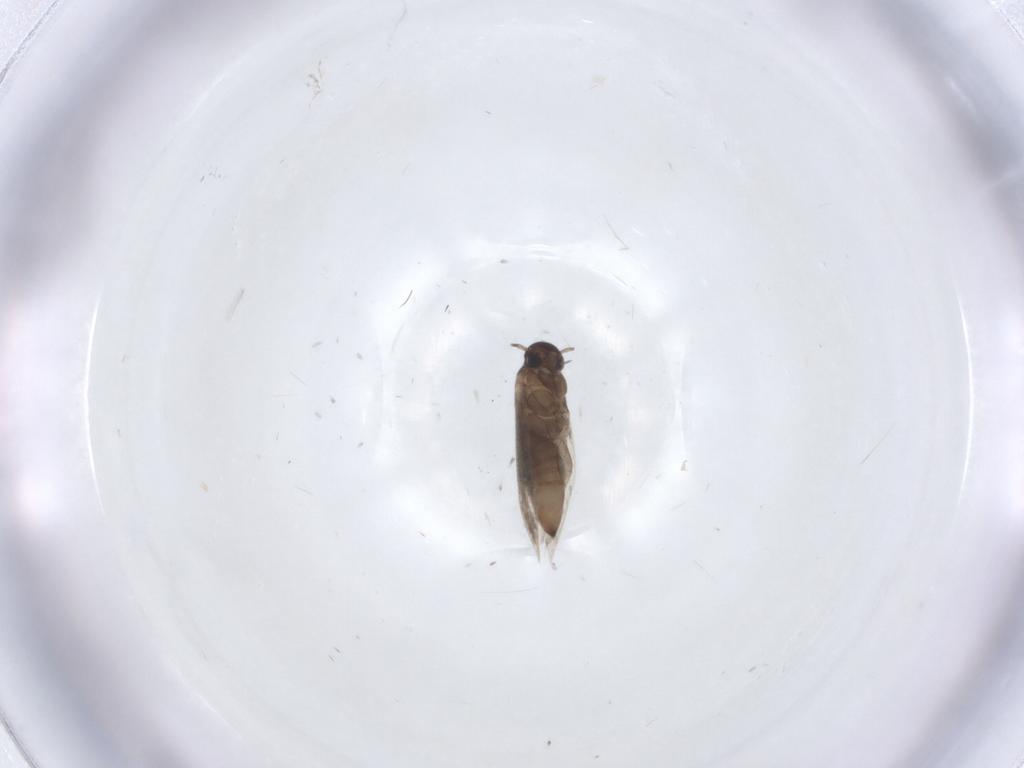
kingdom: Animalia
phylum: Arthropoda
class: Insecta
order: Lepidoptera
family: Heliozelidae
